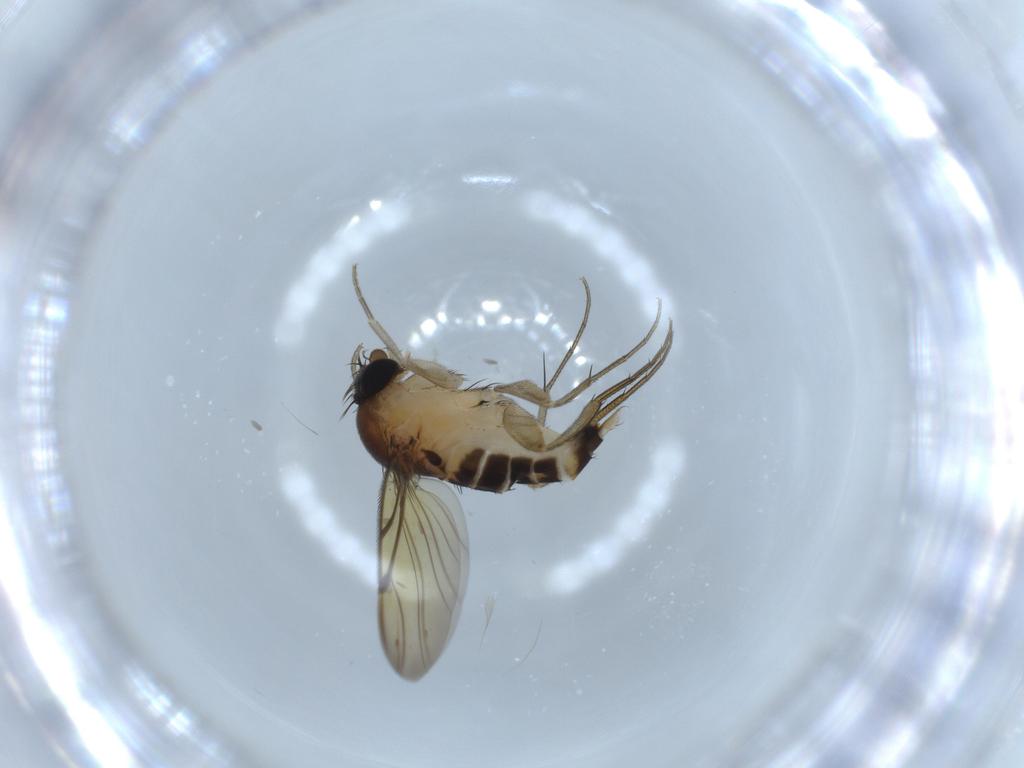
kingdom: Animalia
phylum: Arthropoda
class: Insecta
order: Diptera
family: Phoridae
